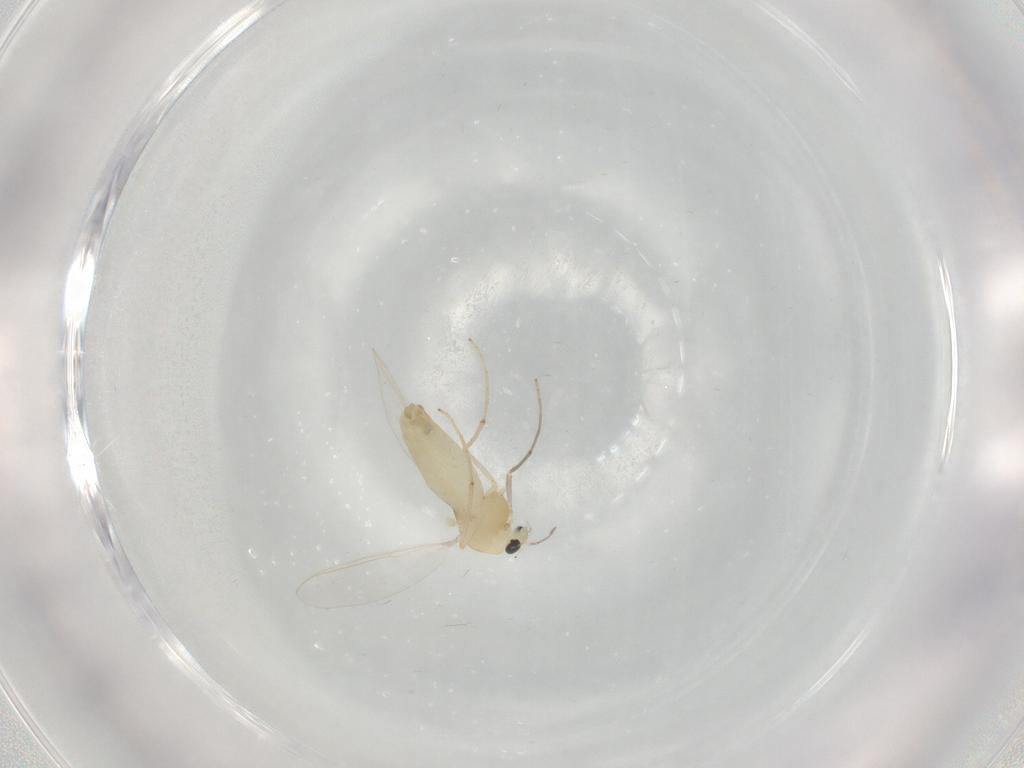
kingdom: Animalia
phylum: Arthropoda
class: Insecta
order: Diptera
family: Chironomidae
